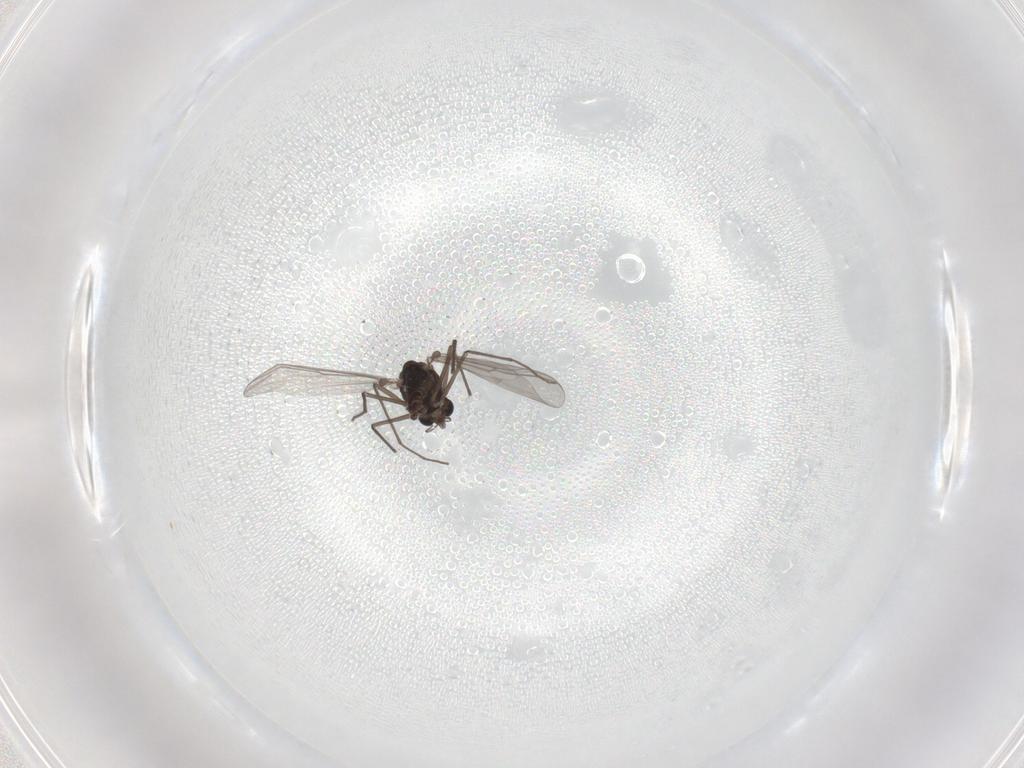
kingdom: Animalia
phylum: Arthropoda
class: Insecta
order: Diptera
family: Chironomidae
